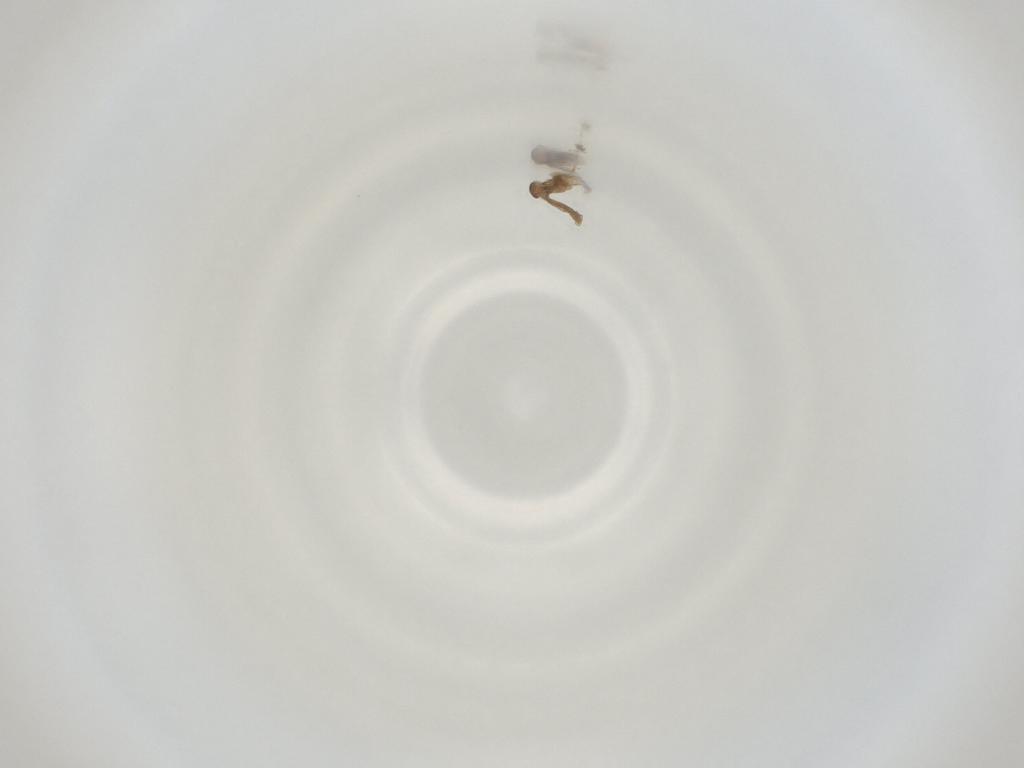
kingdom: Animalia
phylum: Arthropoda
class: Insecta
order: Diptera
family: Cecidomyiidae
